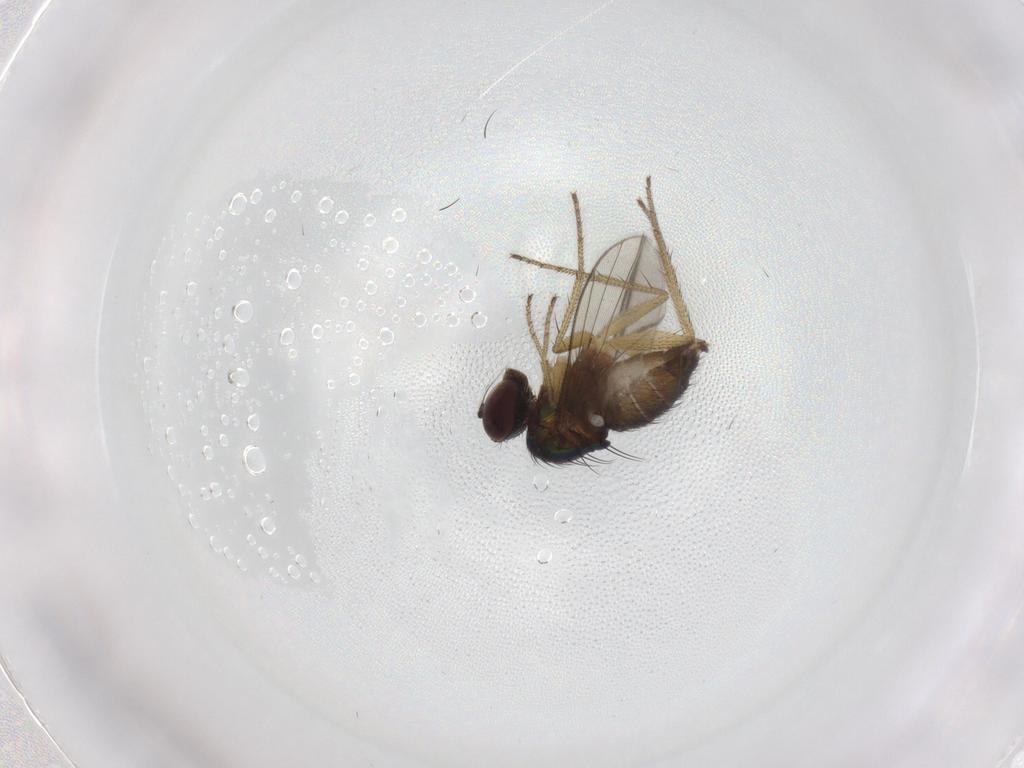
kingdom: Animalia
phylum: Arthropoda
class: Insecta
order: Diptera
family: Dolichopodidae
